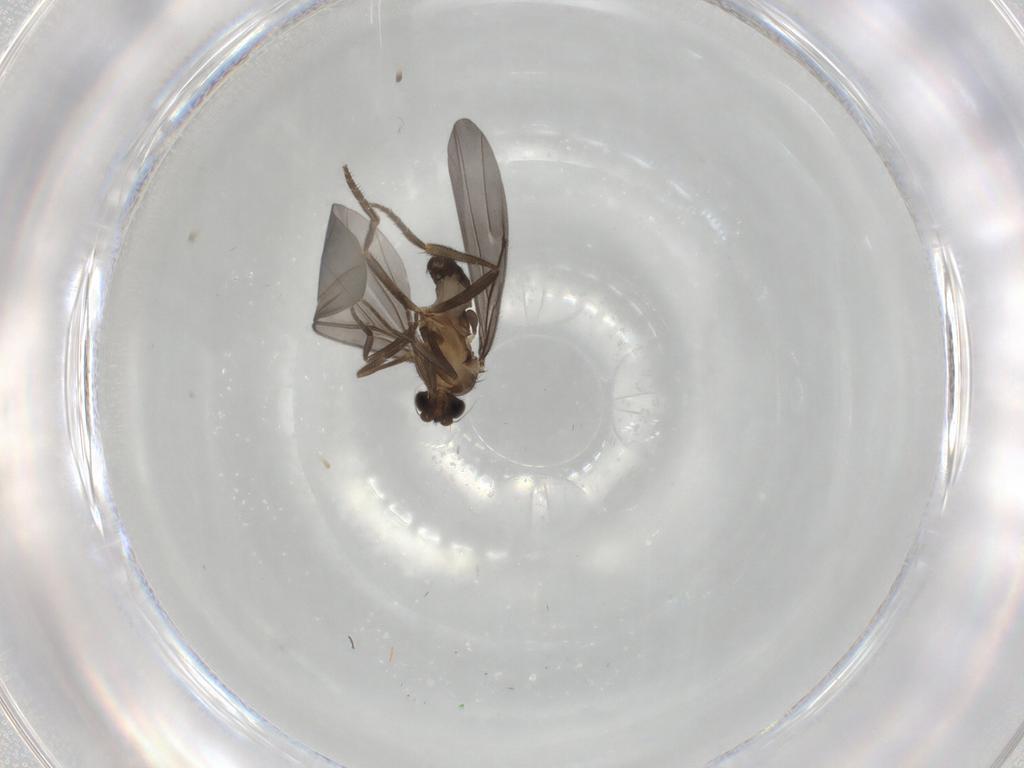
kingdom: Animalia
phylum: Arthropoda
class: Insecta
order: Diptera
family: Phoridae
